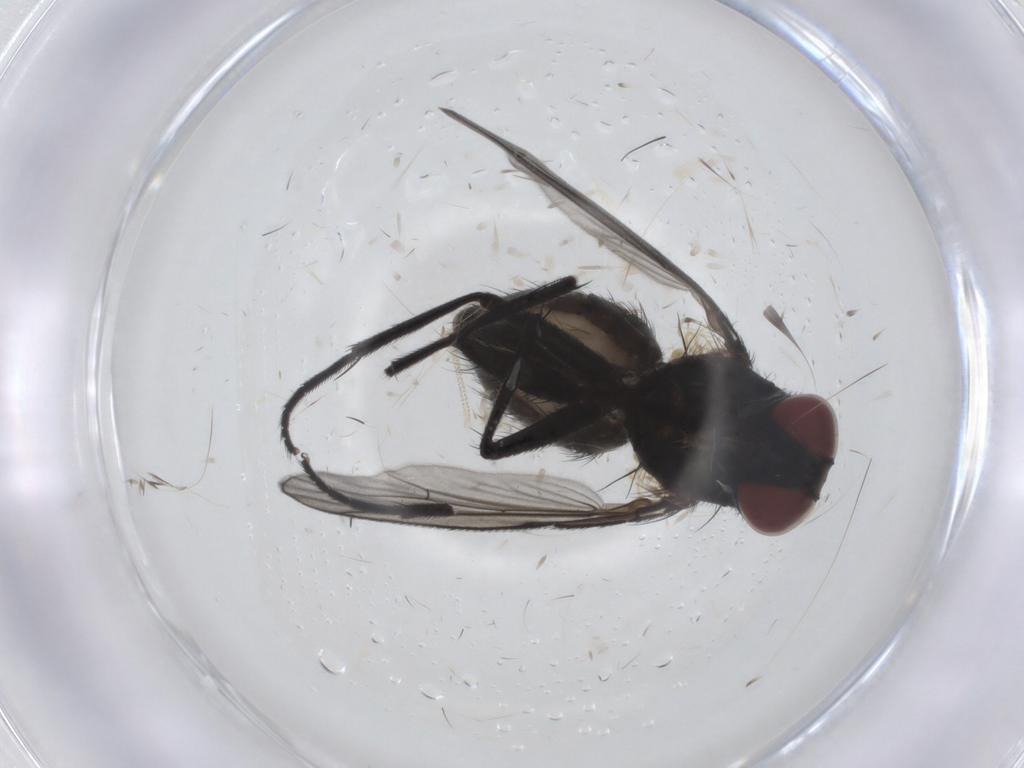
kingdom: Animalia
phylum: Arthropoda
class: Insecta
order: Diptera
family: Muscidae
